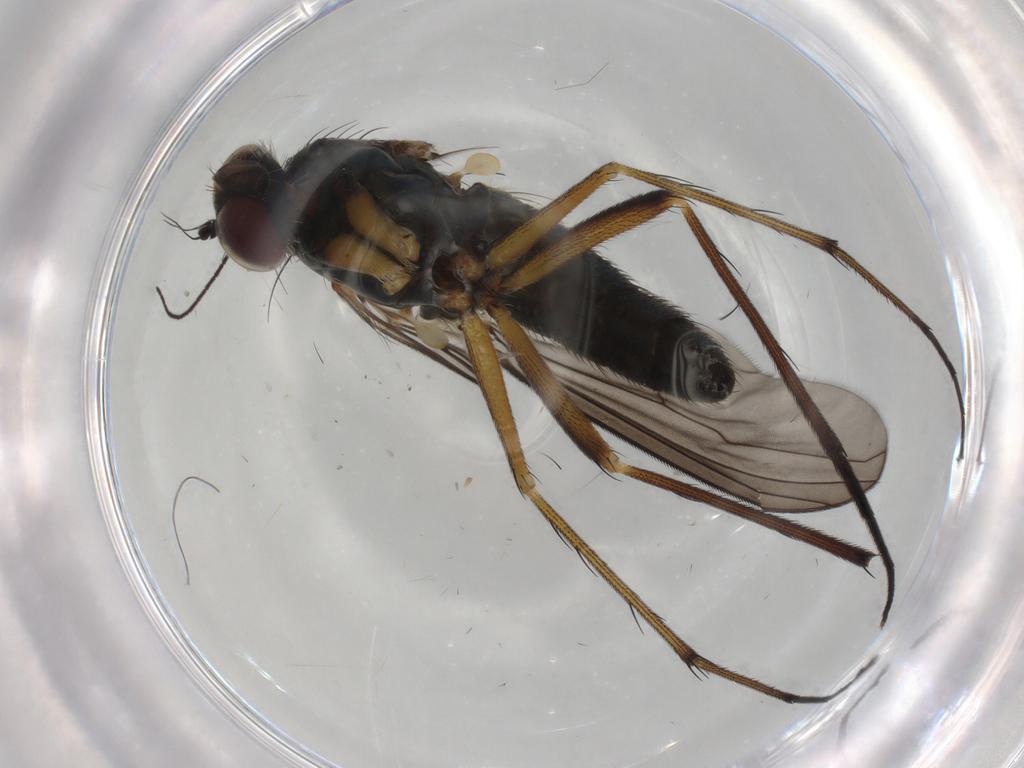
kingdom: Animalia
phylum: Arthropoda
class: Insecta
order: Diptera
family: Dolichopodidae
